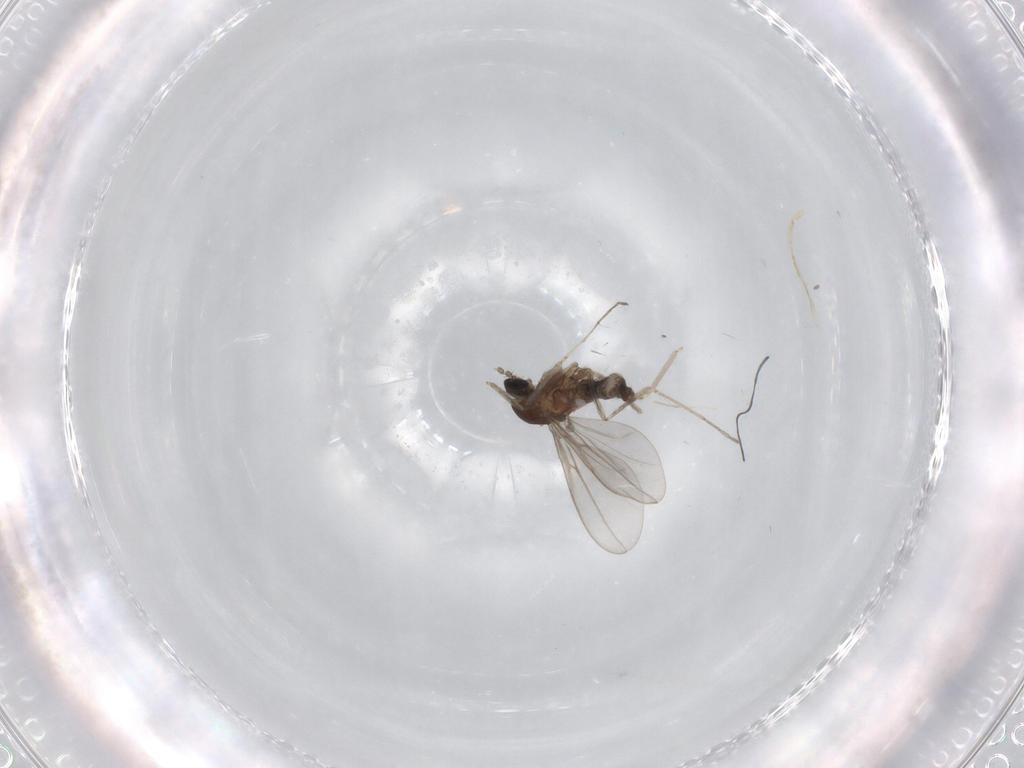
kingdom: Animalia
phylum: Arthropoda
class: Insecta
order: Diptera
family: Cecidomyiidae
